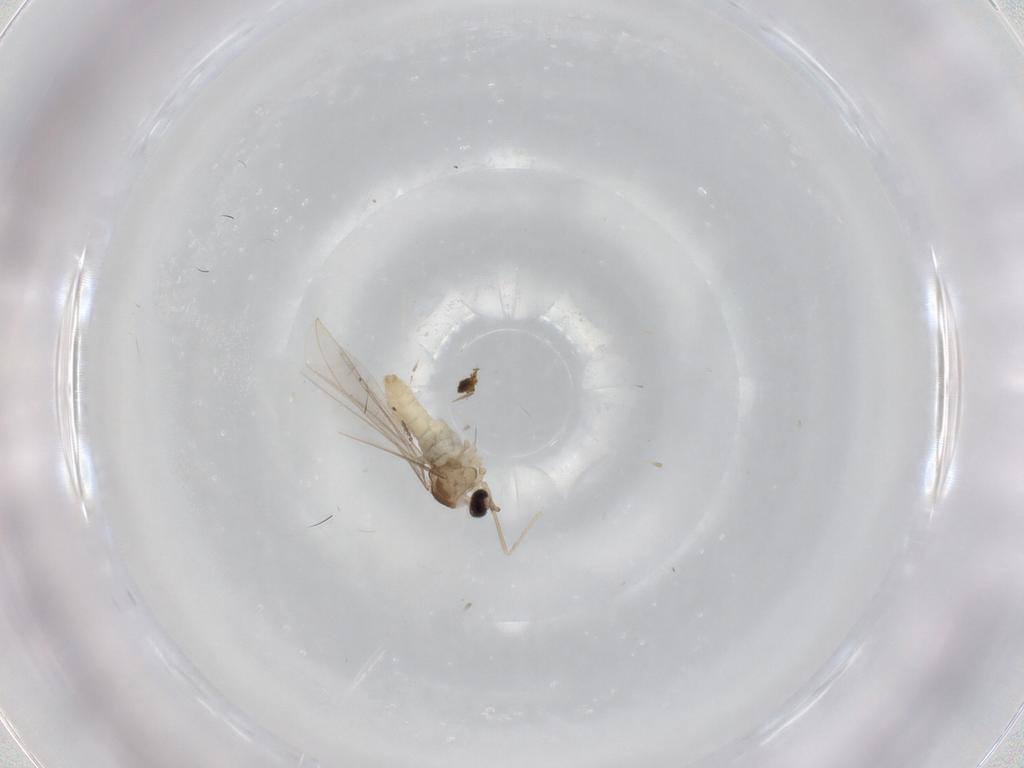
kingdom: Animalia
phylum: Arthropoda
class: Insecta
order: Diptera
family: Cecidomyiidae
